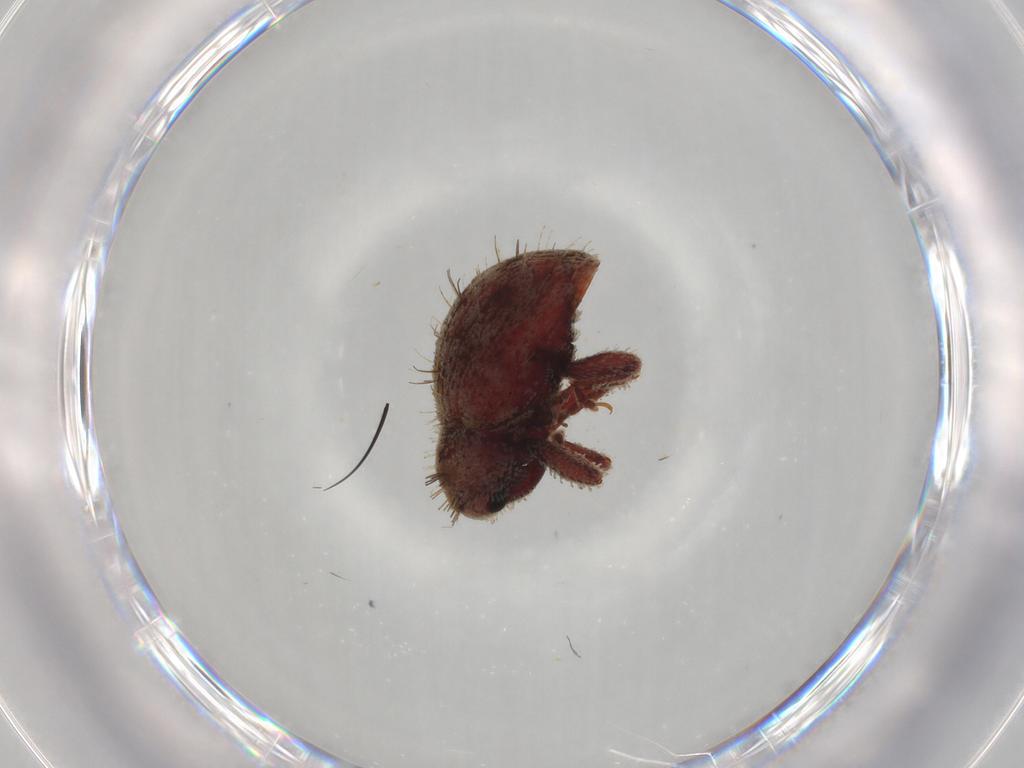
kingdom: Animalia
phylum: Arthropoda
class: Insecta
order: Coleoptera
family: Curculionidae
